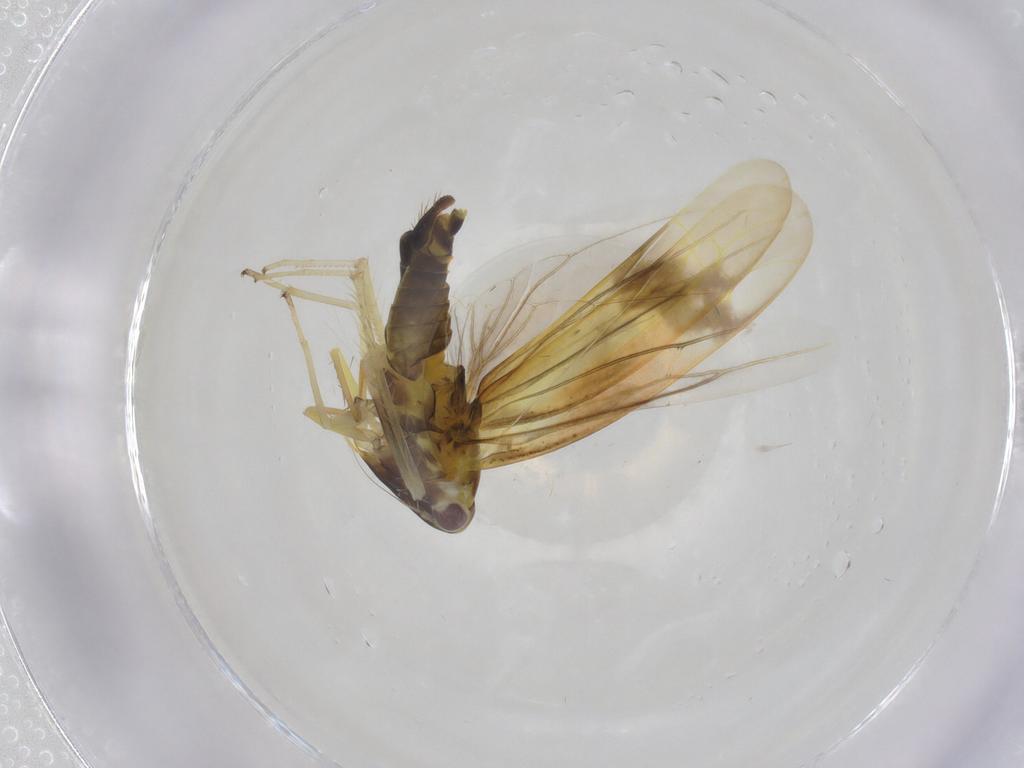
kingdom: Animalia
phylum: Arthropoda
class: Insecta
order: Hemiptera
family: Cicadellidae
